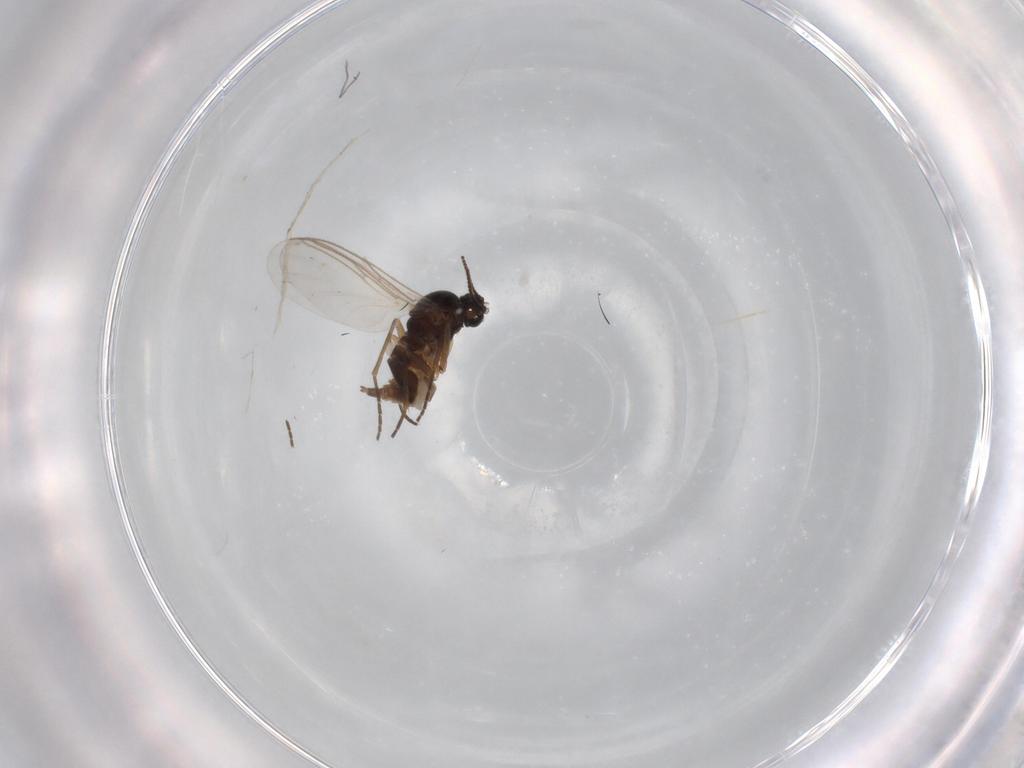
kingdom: Animalia
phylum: Arthropoda
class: Insecta
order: Diptera
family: Sciaridae
